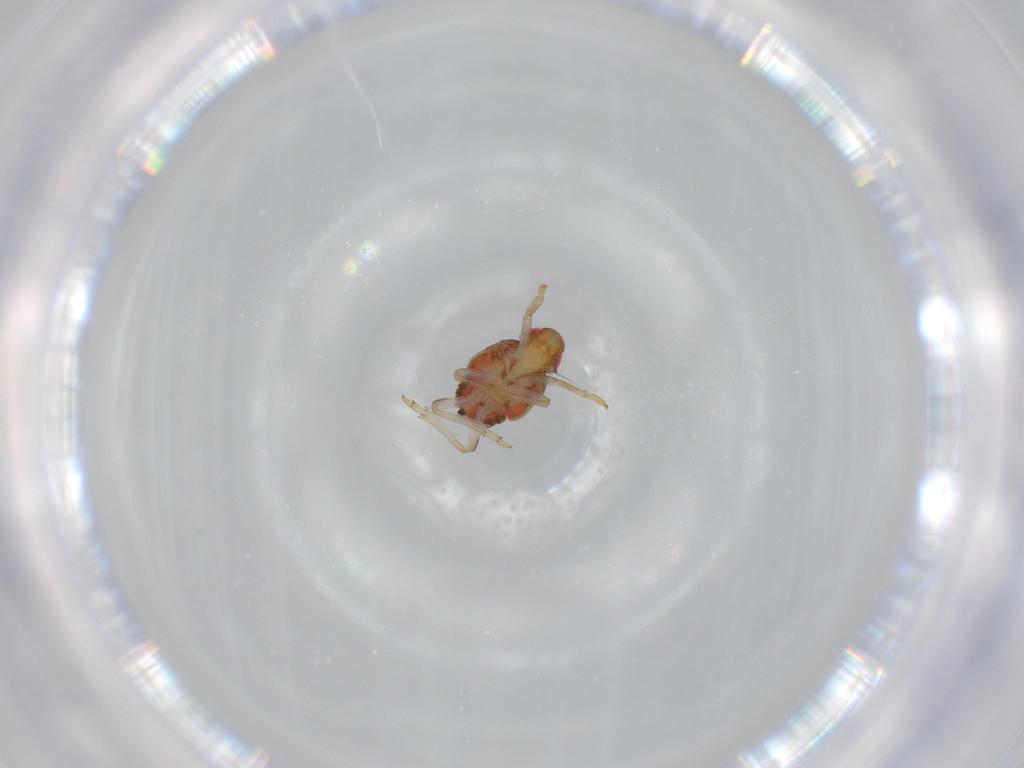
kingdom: Animalia
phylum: Arthropoda
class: Insecta
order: Hemiptera
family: Issidae
